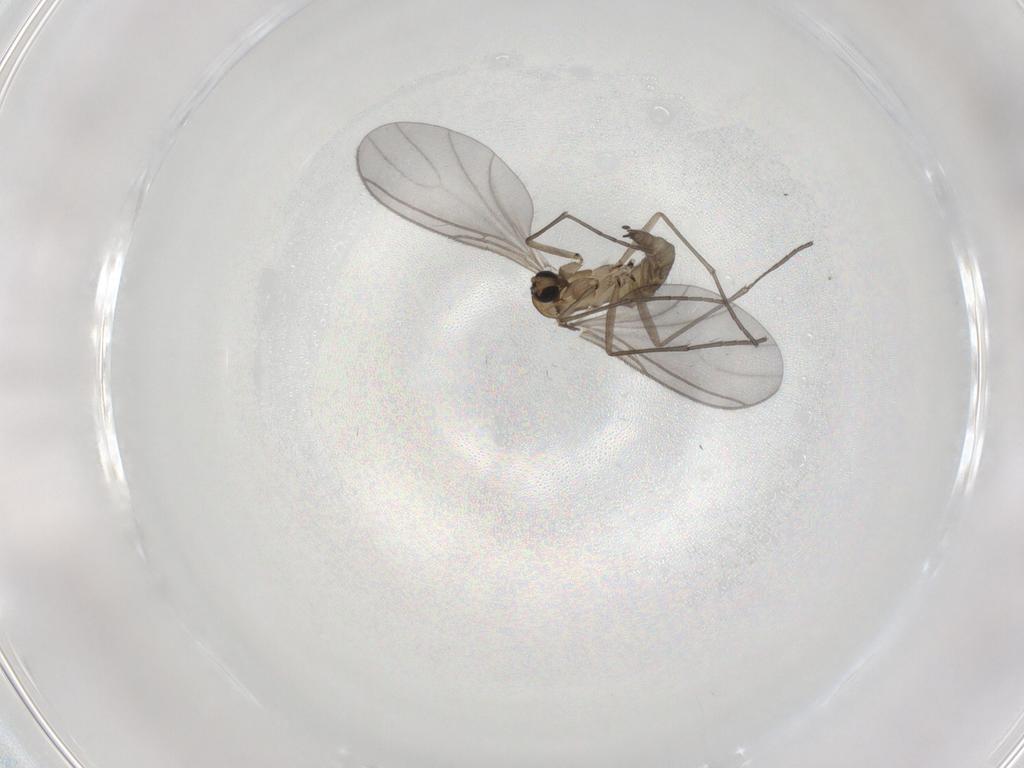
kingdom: Animalia
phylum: Arthropoda
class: Insecta
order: Diptera
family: Sciaridae
